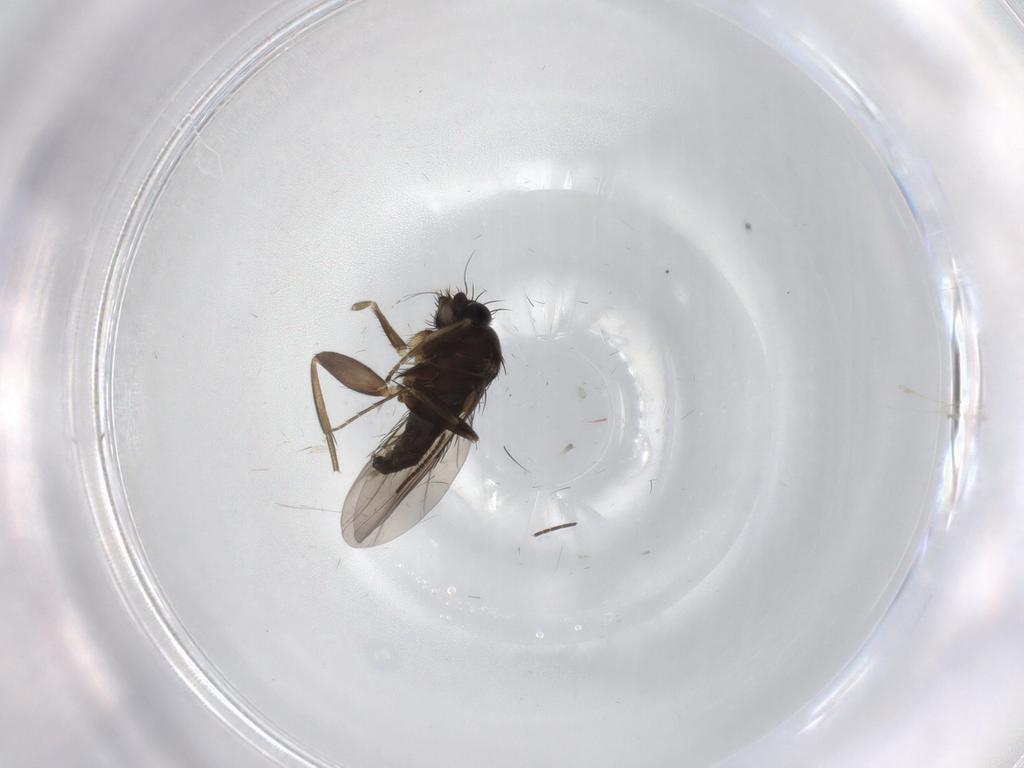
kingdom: Animalia
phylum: Arthropoda
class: Insecta
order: Diptera
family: Phoridae
